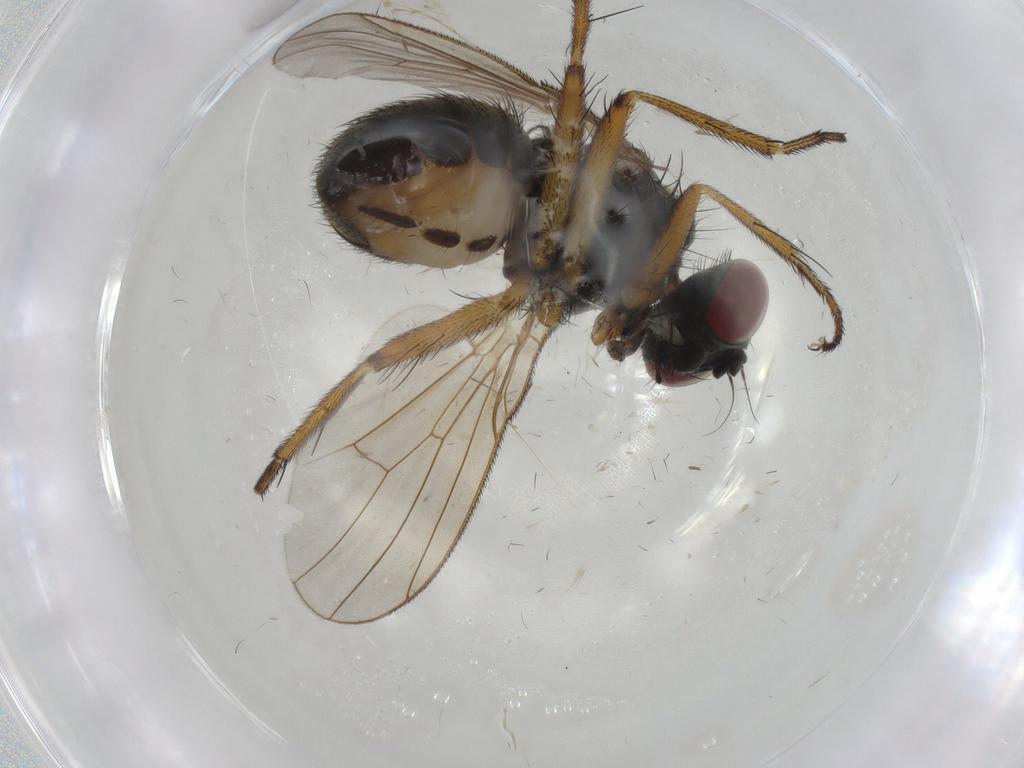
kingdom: Animalia
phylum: Arthropoda
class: Insecta
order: Diptera
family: Muscidae
